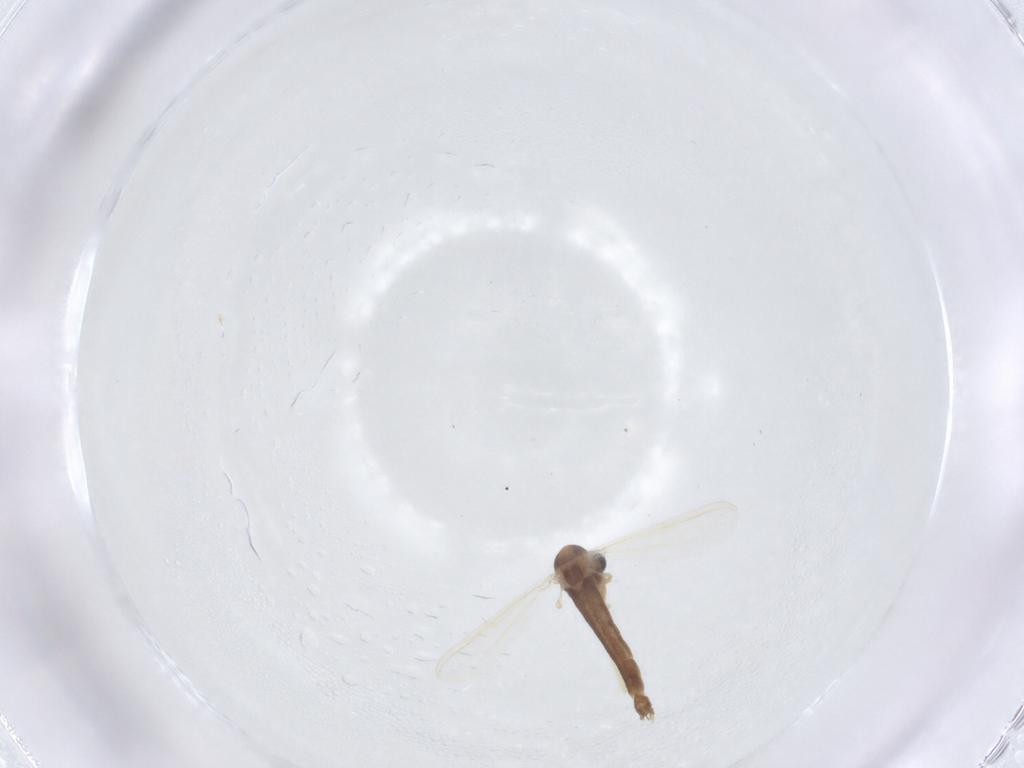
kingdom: Animalia
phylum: Arthropoda
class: Insecta
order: Diptera
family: Chironomidae
